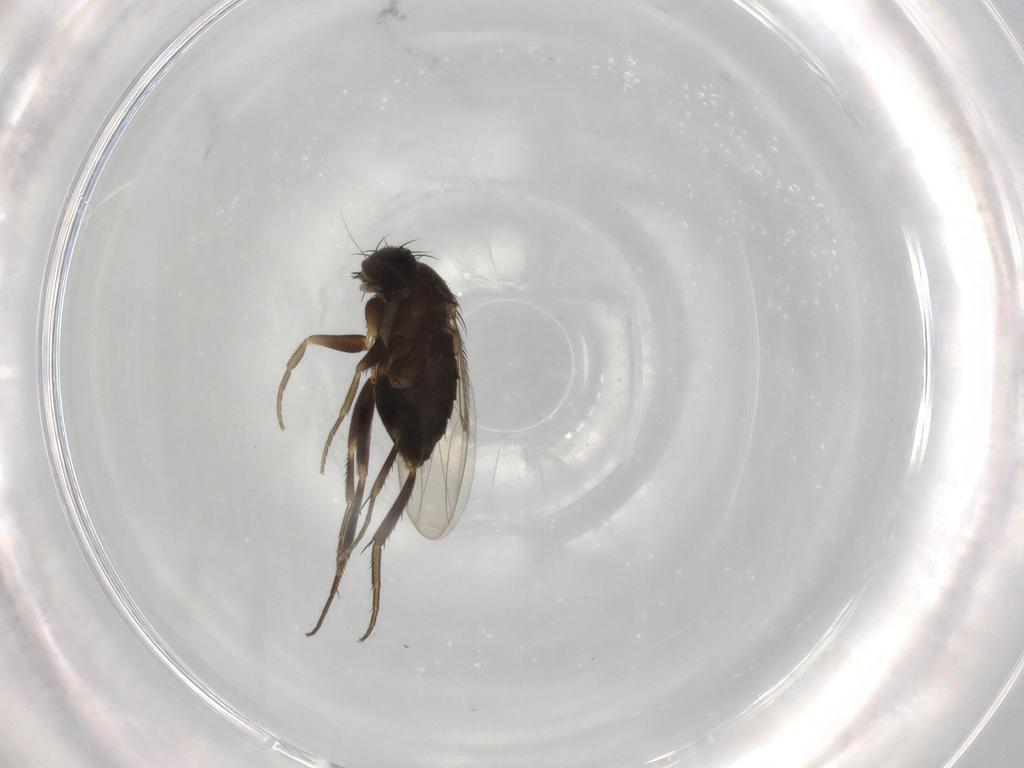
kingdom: Animalia
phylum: Arthropoda
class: Insecta
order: Diptera
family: Phoridae
